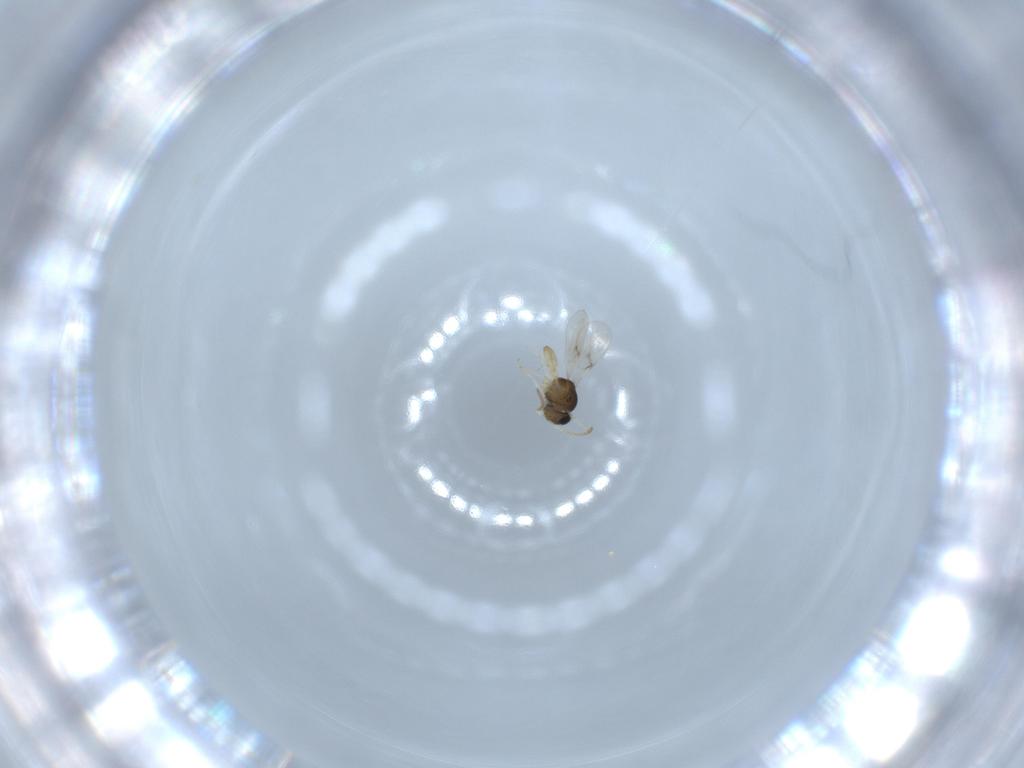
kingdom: Animalia
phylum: Arthropoda
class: Insecta
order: Hymenoptera
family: Scelionidae
